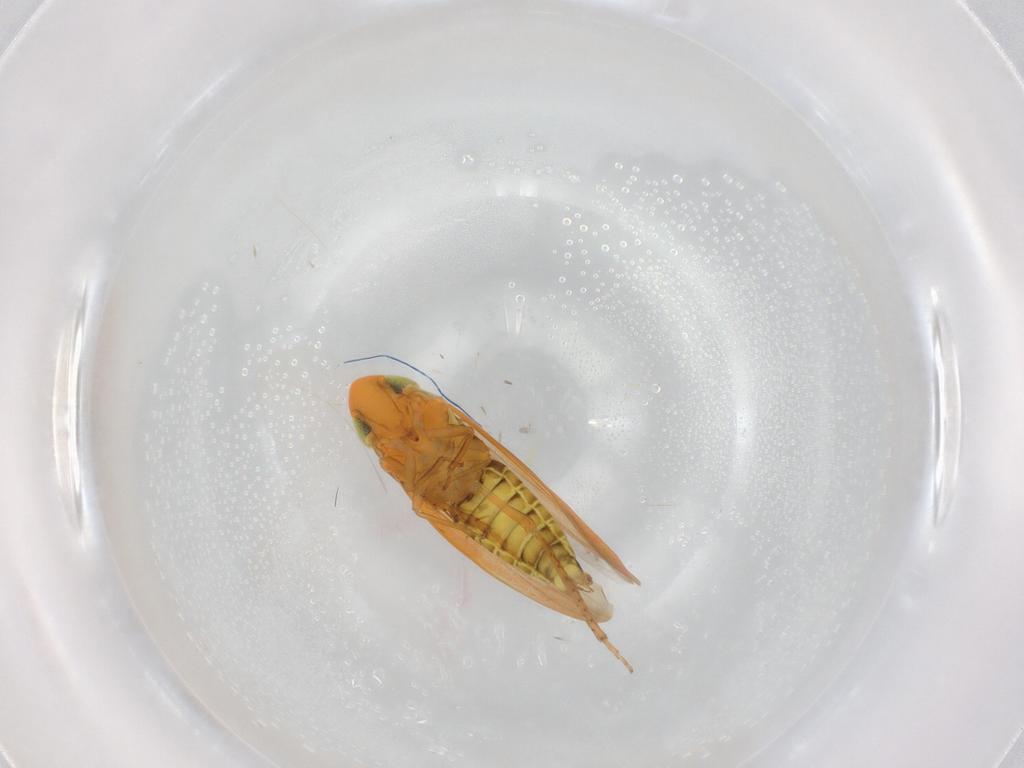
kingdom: Animalia
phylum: Arthropoda
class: Insecta
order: Hemiptera
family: Cicadellidae
